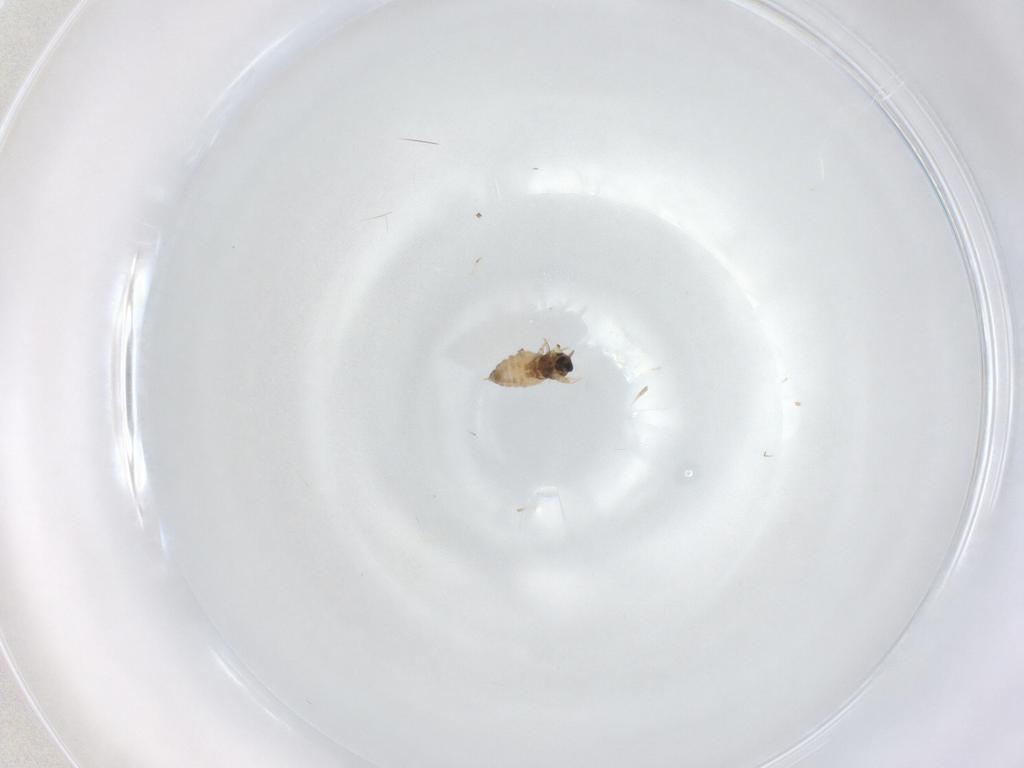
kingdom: Animalia
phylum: Arthropoda
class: Insecta
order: Diptera
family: Cecidomyiidae
